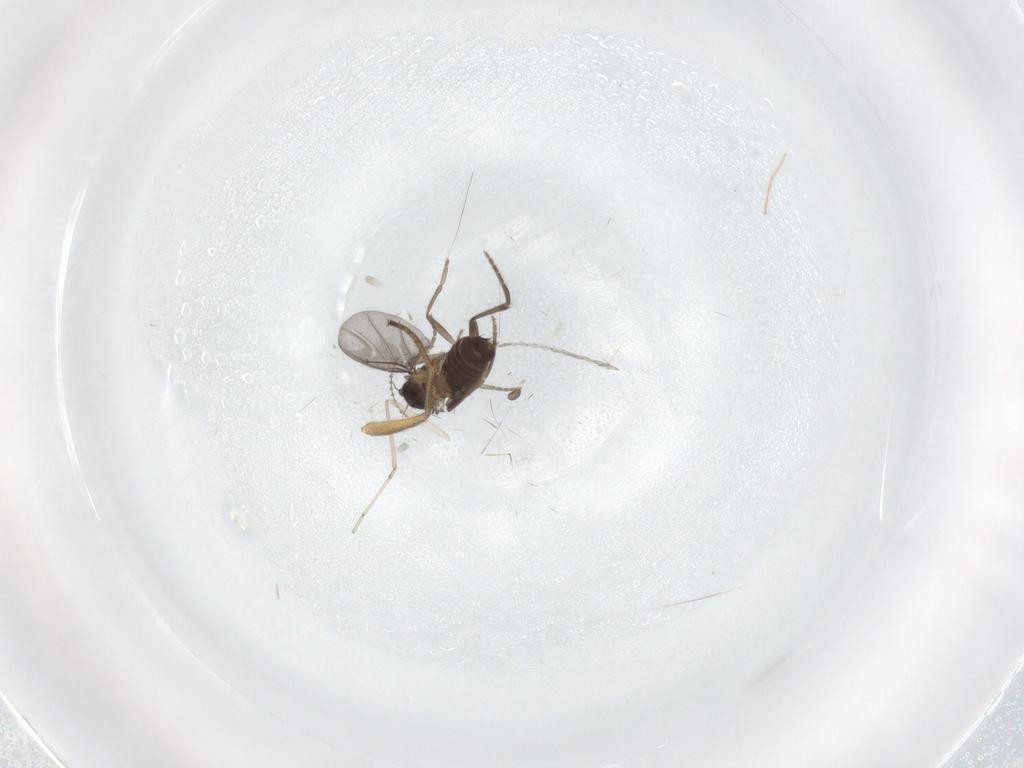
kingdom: Animalia
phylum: Arthropoda
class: Insecta
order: Diptera
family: Cecidomyiidae
